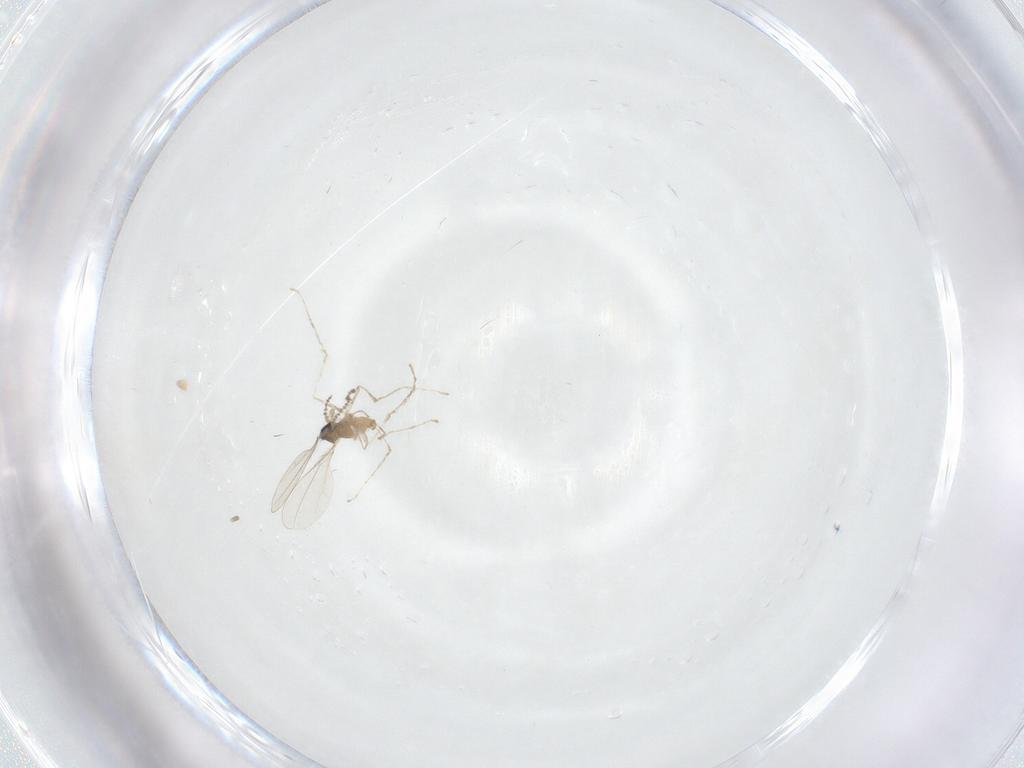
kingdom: Animalia
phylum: Arthropoda
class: Insecta
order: Diptera
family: Cecidomyiidae
